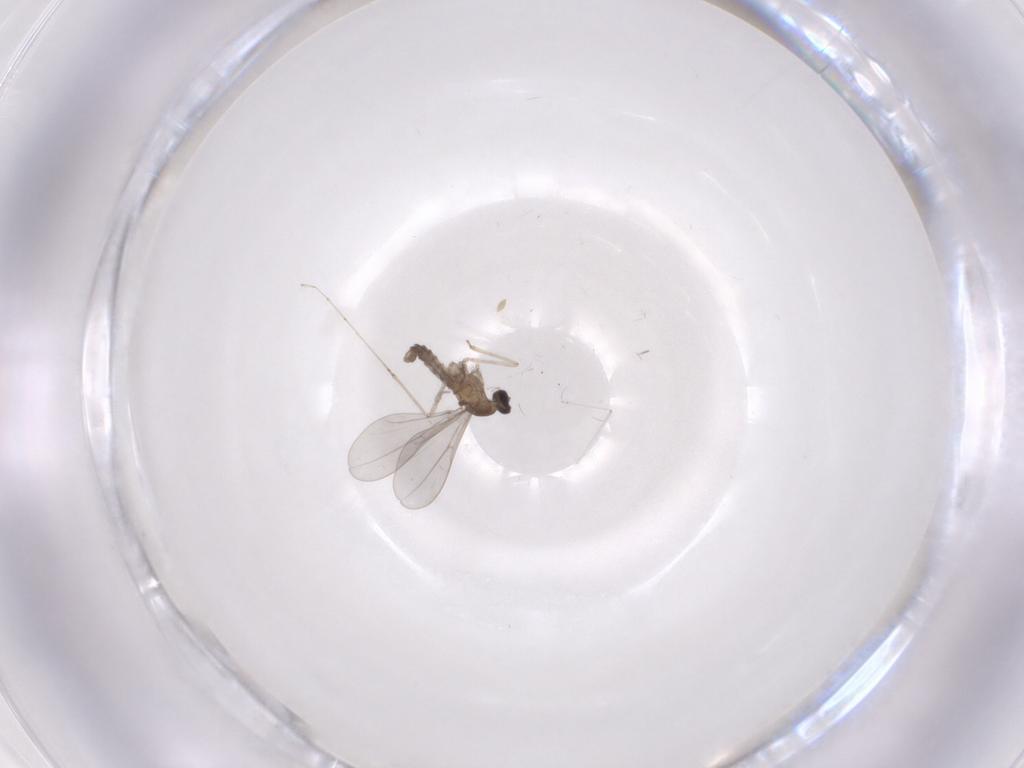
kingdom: Animalia
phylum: Arthropoda
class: Insecta
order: Diptera
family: Cecidomyiidae
